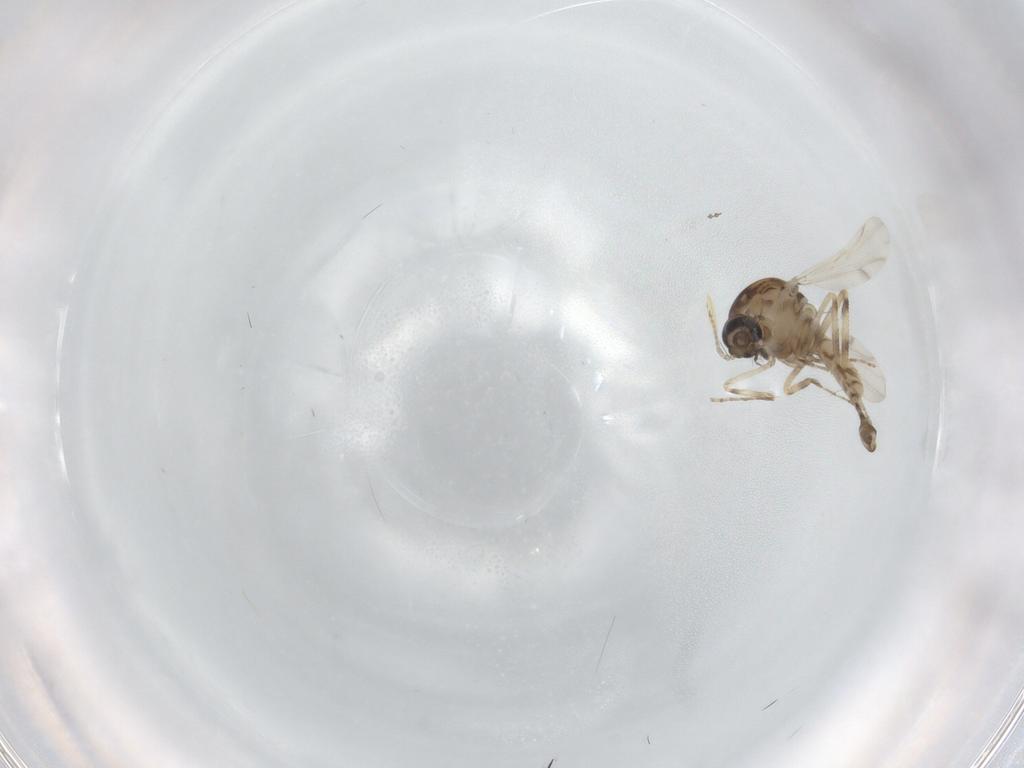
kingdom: Animalia
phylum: Arthropoda
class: Insecta
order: Diptera
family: Ceratopogonidae
